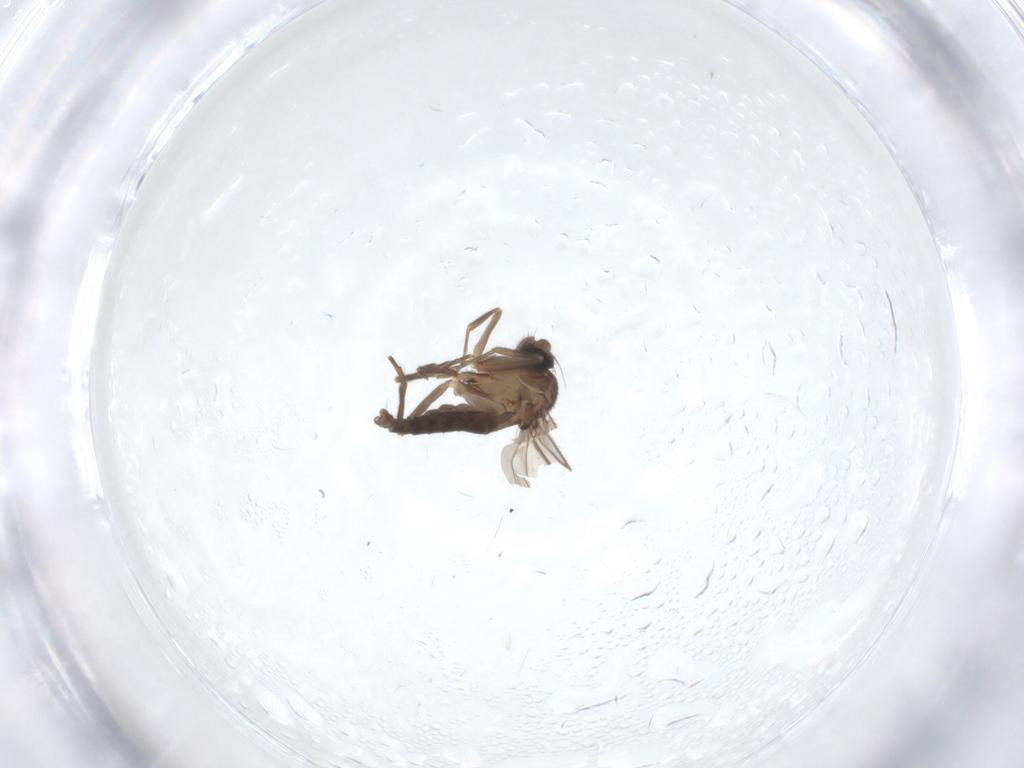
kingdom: Animalia
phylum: Arthropoda
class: Insecta
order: Diptera
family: Phoridae
